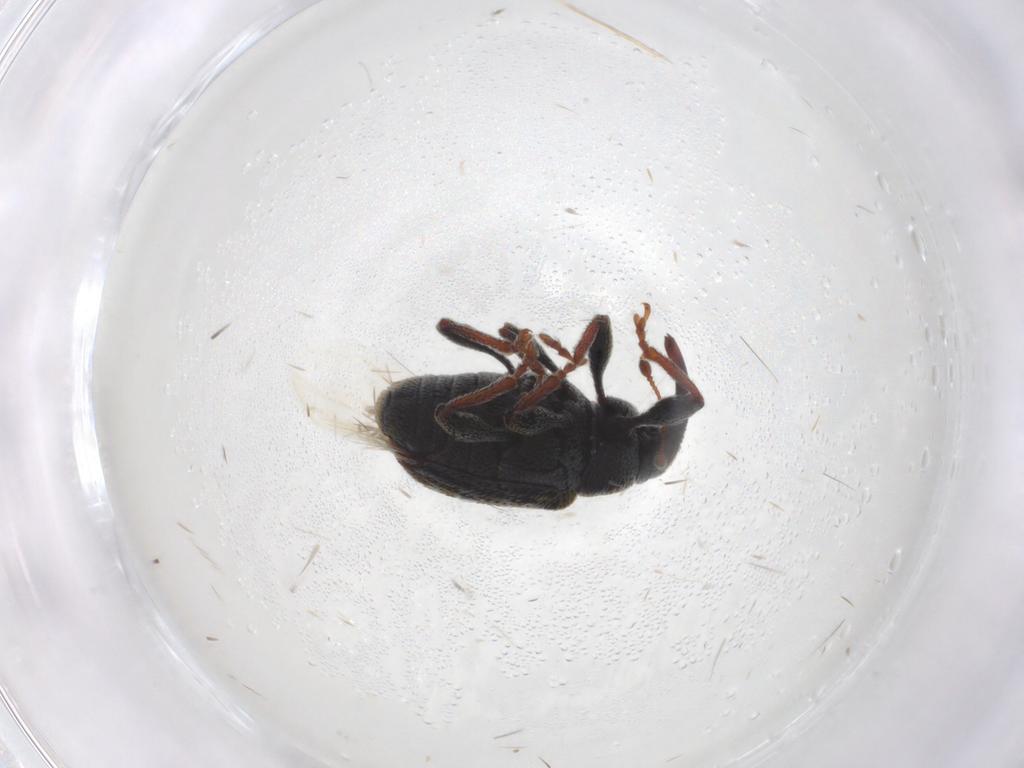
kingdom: Animalia
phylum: Arthropoda
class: Insecta
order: Coleoptera
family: Curculionidae
